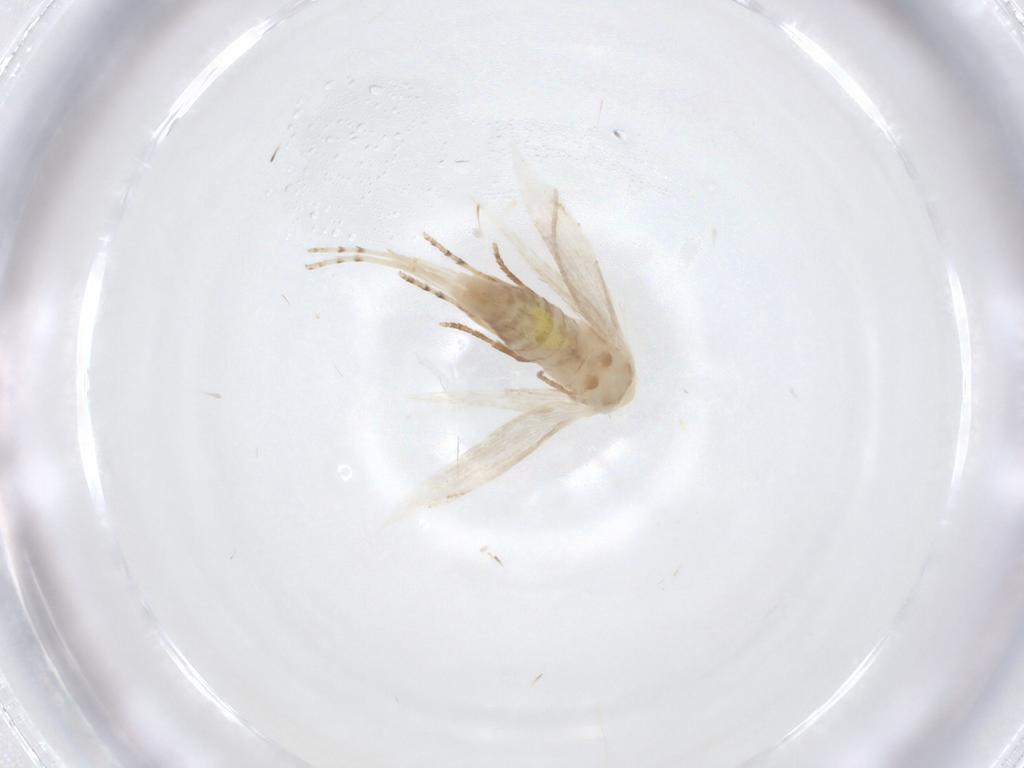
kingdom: Animalia
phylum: Arthropoda
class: Insecta
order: Lepidoptera
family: Lyonetiidae
